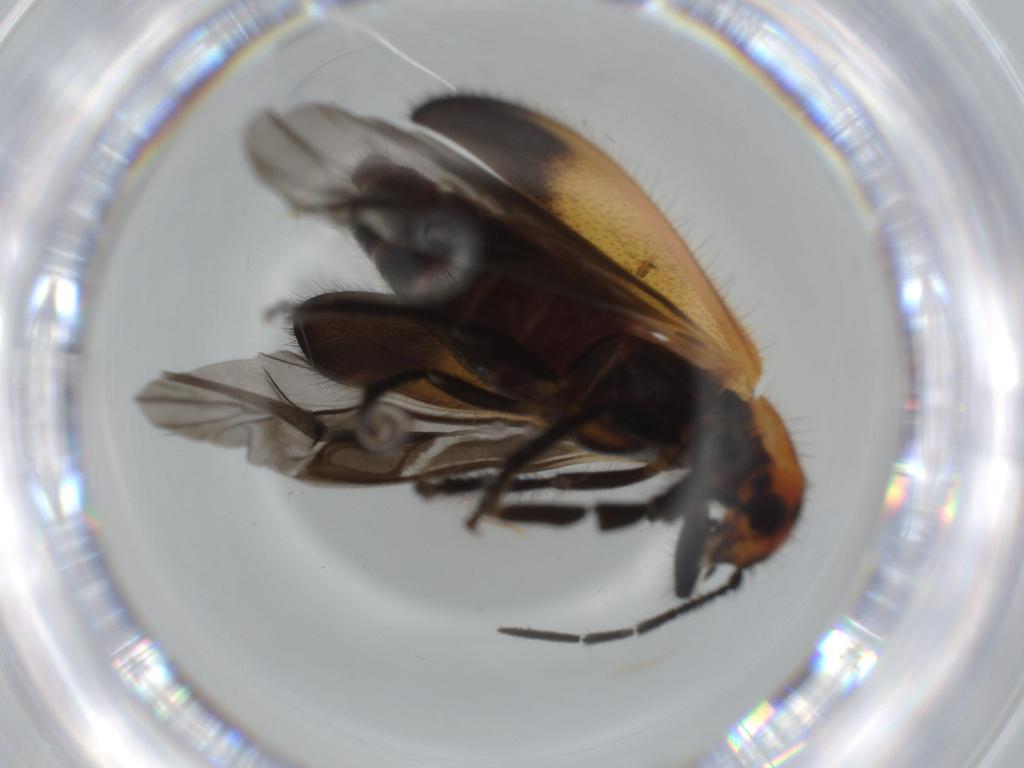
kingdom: Animalia
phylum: Arthropoda
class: Insecta
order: Coleoptera
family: Cleridae
